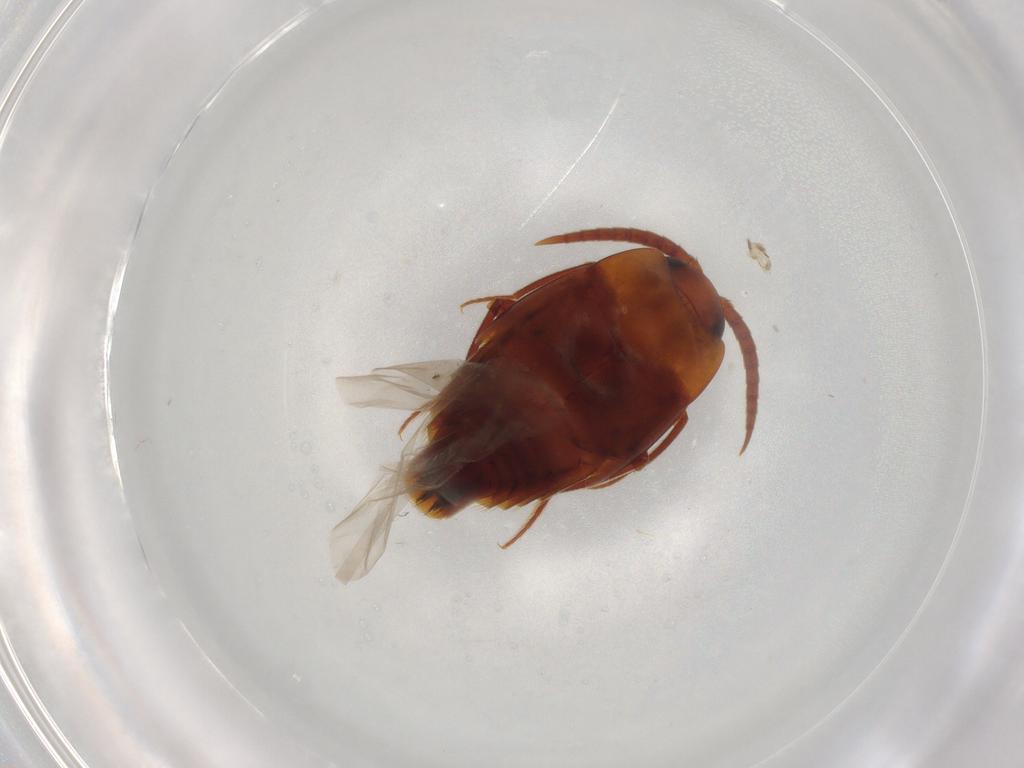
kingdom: Animalia
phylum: Arthropoda
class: Insecta
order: Coleoptera
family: Staphylinidae
